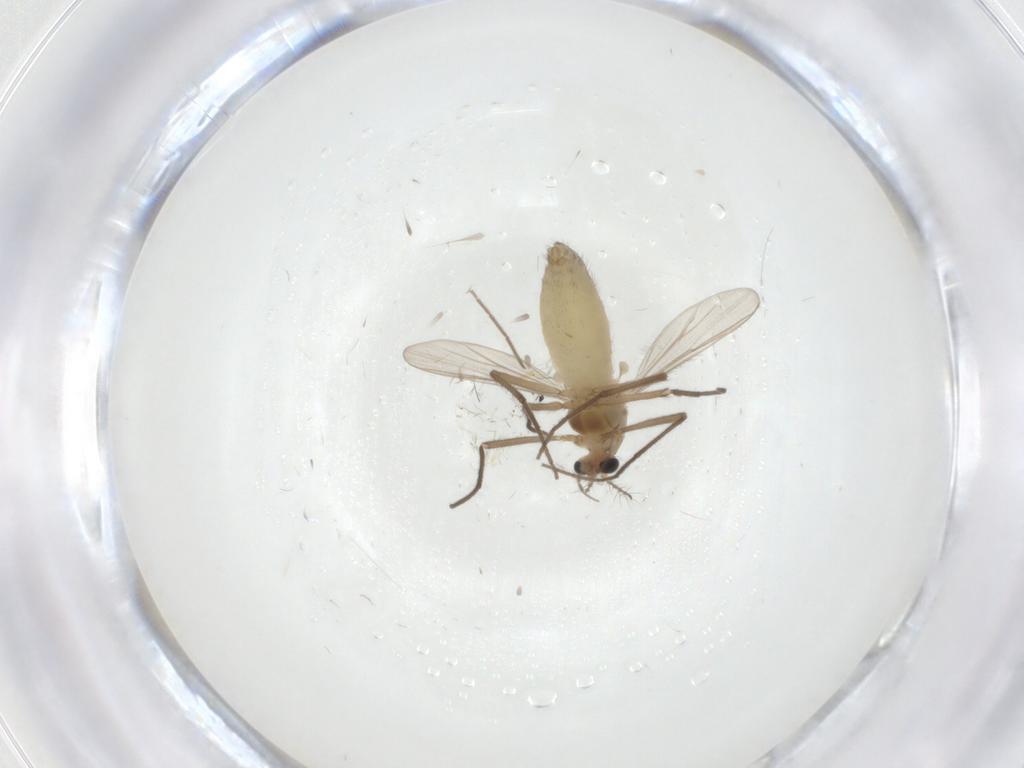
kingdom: Animalia
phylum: Arthropoda
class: Insecta
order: Diptera
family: Chironomidae
